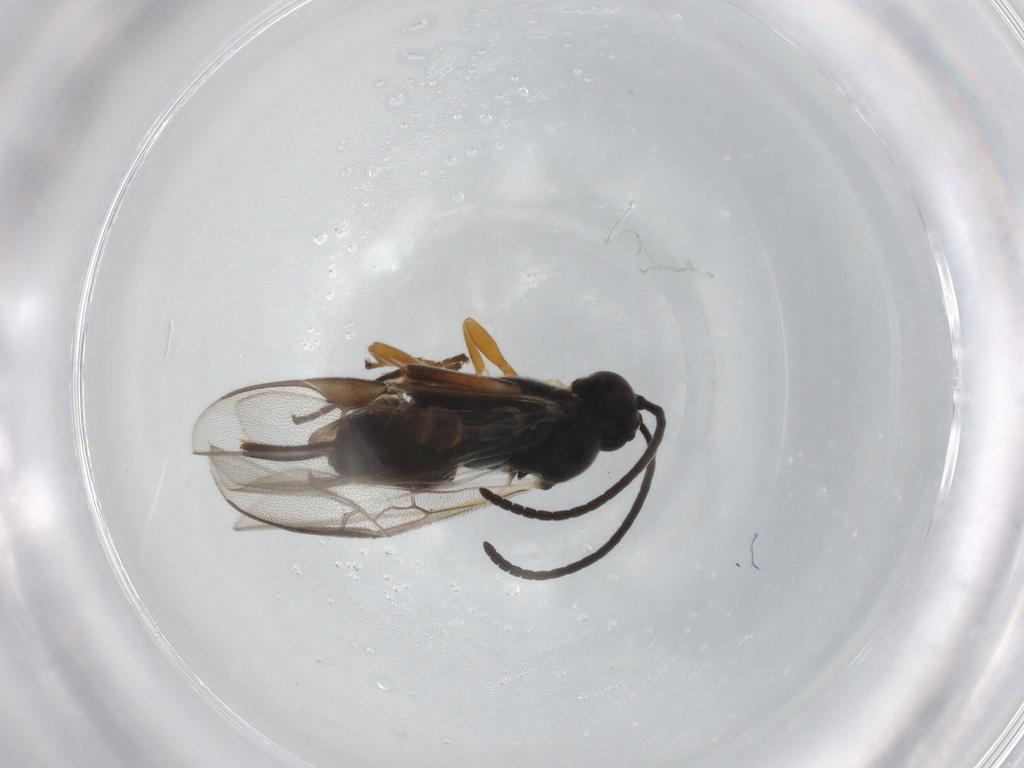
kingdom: Animalia
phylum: Arthropoda
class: Insecta
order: Hymenoptera
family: Braconidae
